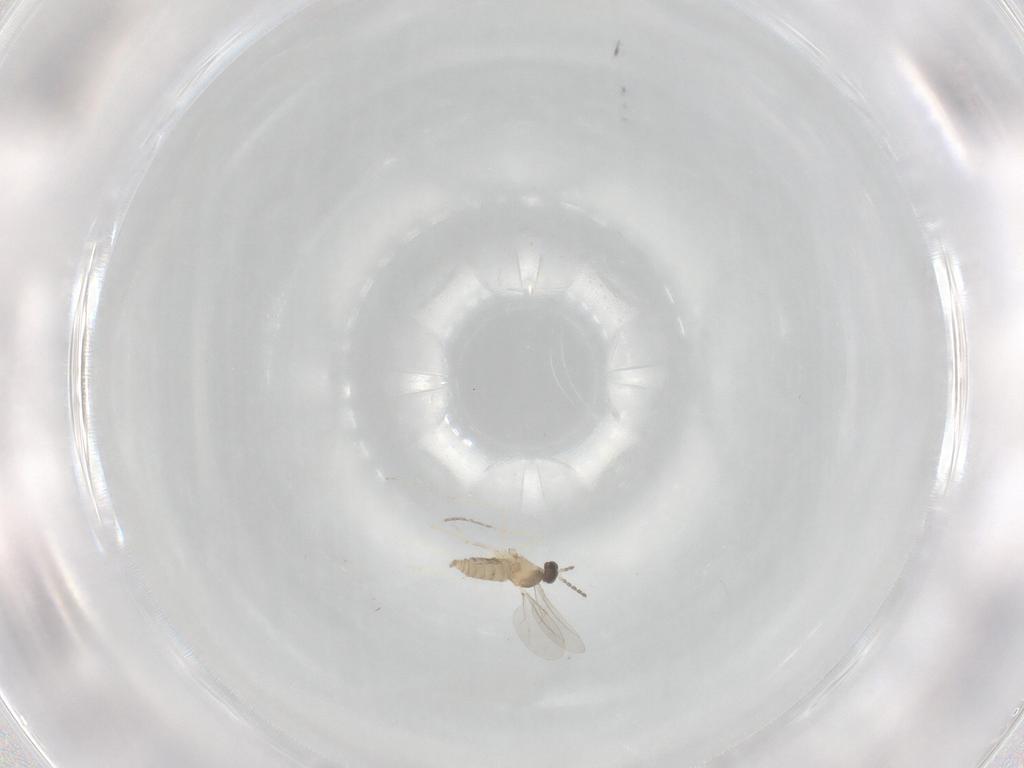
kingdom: Animalia
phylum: Arthropoda
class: Insecta
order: Diptera
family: Cecidomyiidae
